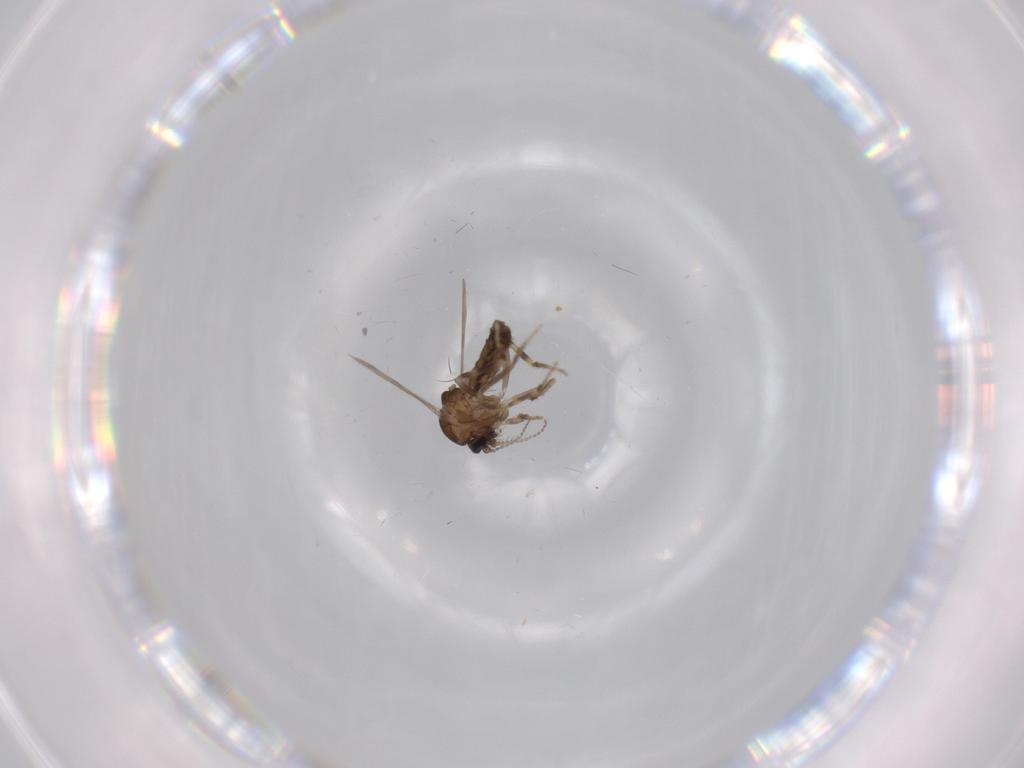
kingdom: Animalia
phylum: Arthropoda
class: Insecta
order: Diptera
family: Ceratopogonidae
